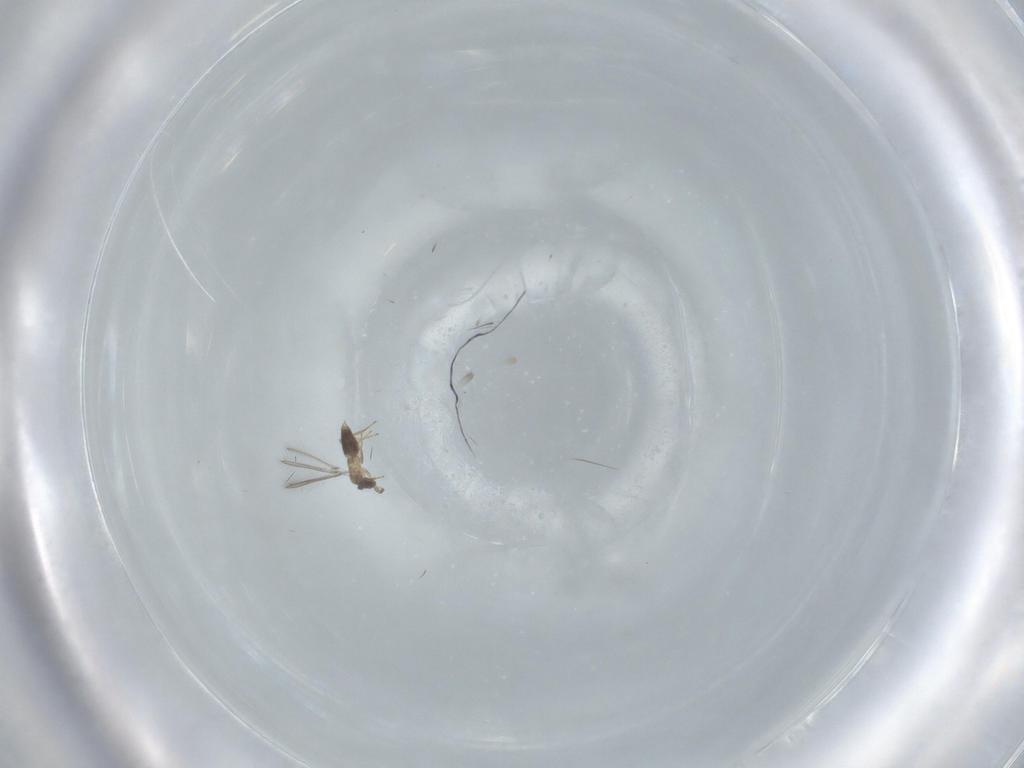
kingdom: Animalia
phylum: Arthropoda
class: Insecta
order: Hymenoptera
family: Mymaridae
